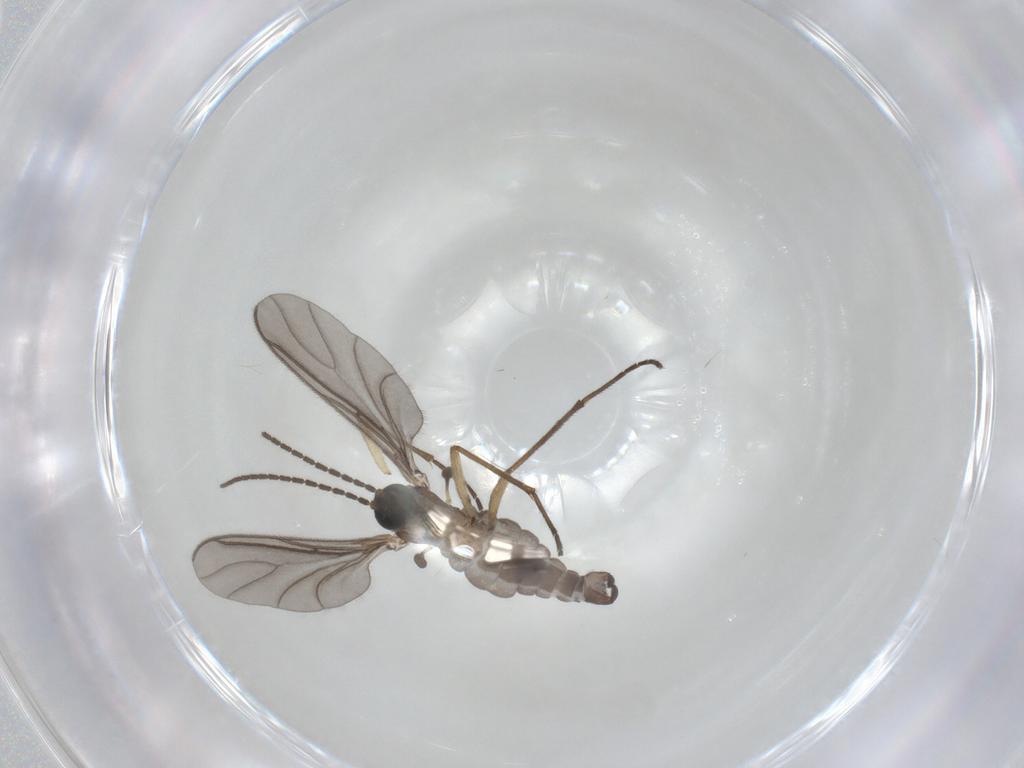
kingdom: Animalia
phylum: Arthropoda
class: Insecta
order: Diptera
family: Sciaridae
